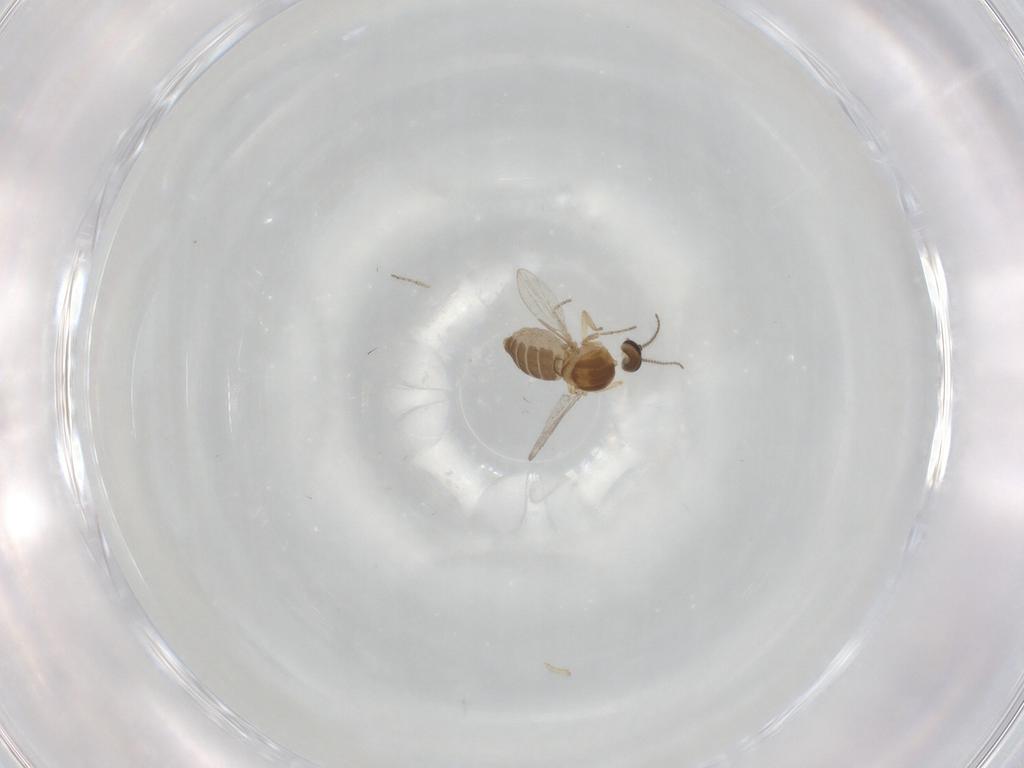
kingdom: Animalia
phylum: Arthropoda
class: Insecta
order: Diptera
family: Ceratopogonidae
